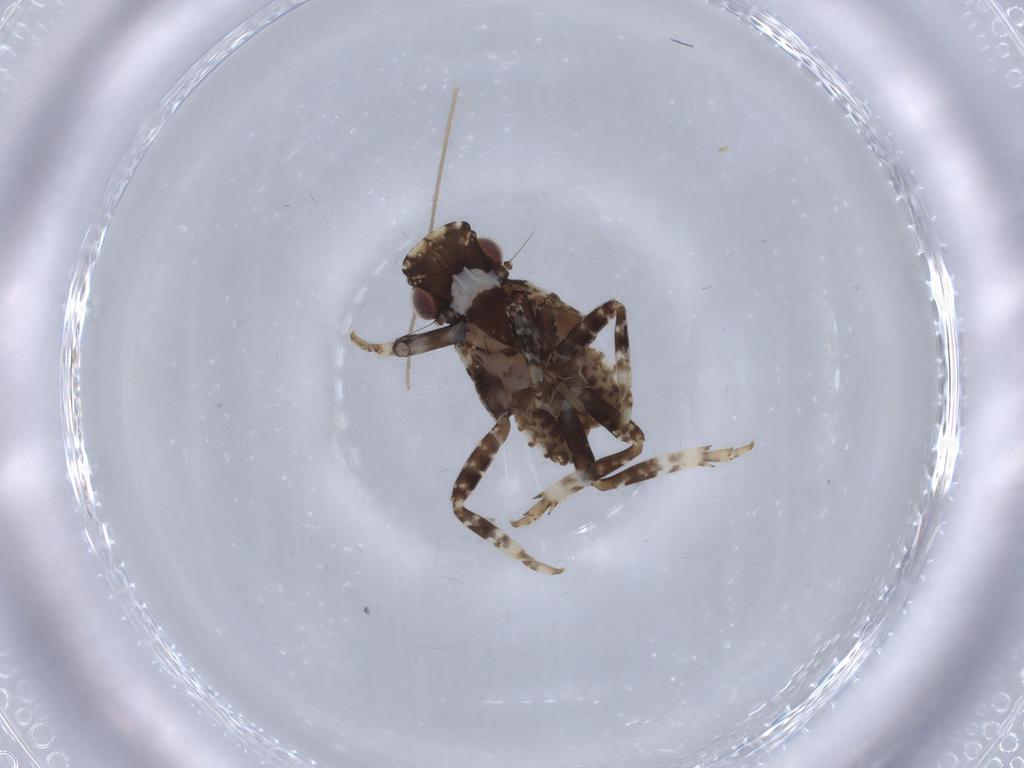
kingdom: Animalia
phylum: Arthropoda
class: Insecta
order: Hemiptera
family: Fulgoridae
